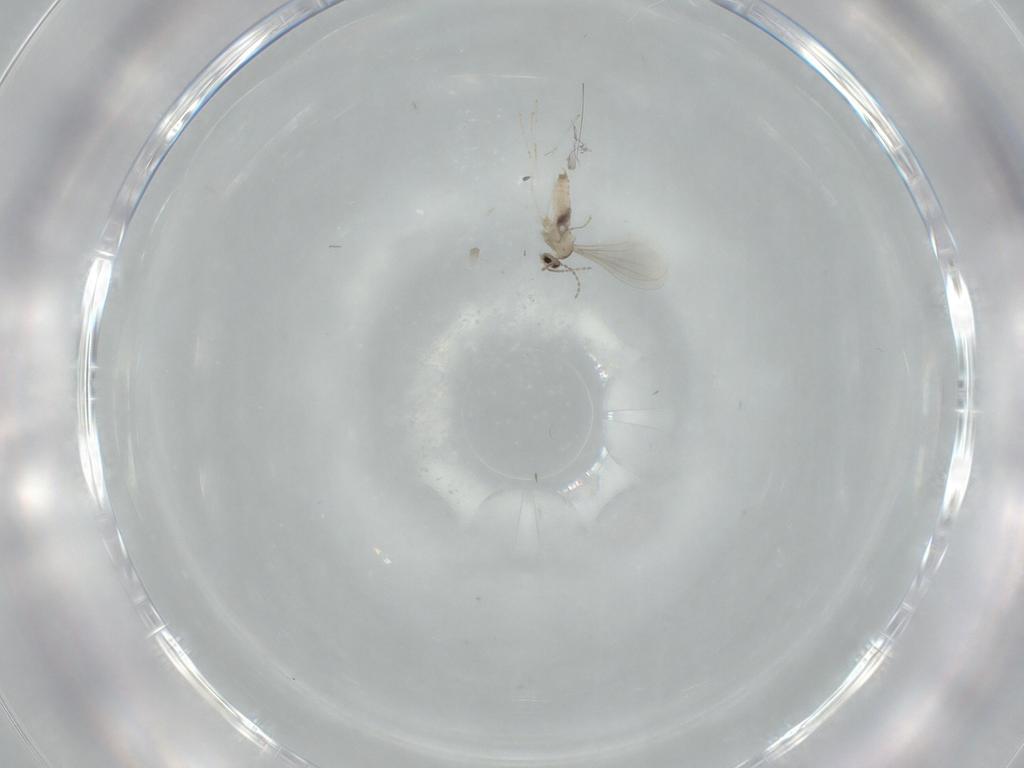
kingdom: Animalia
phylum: Arthropoda
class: Insecta
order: Diptera
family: Cecidomyiidae
